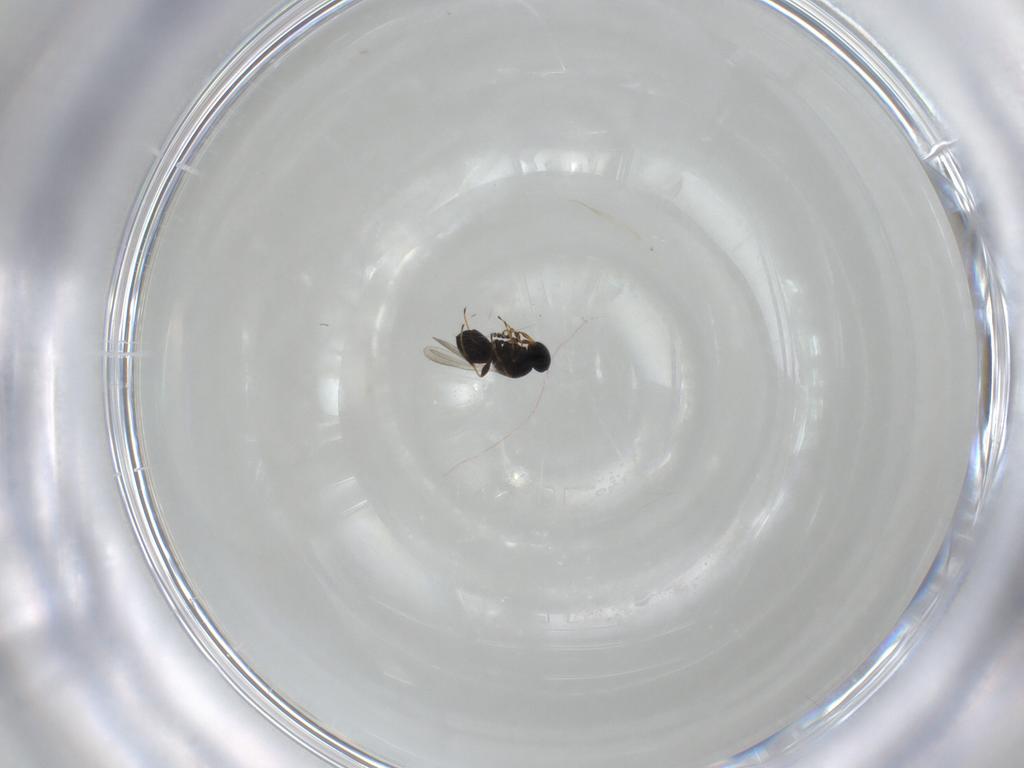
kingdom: Animalia
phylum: Arthropoda
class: Insecta
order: Hymenoptera
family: Platygastridae
